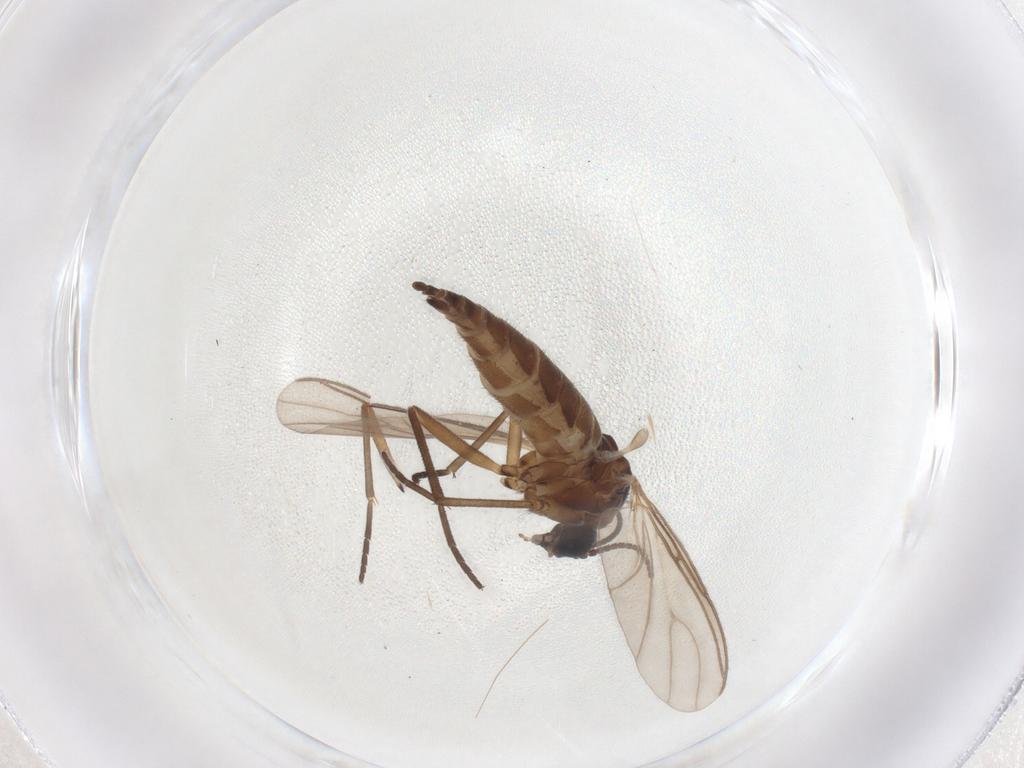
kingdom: Animalia
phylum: Arthropoda
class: Insecta
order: Diptera
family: Sciaridae
